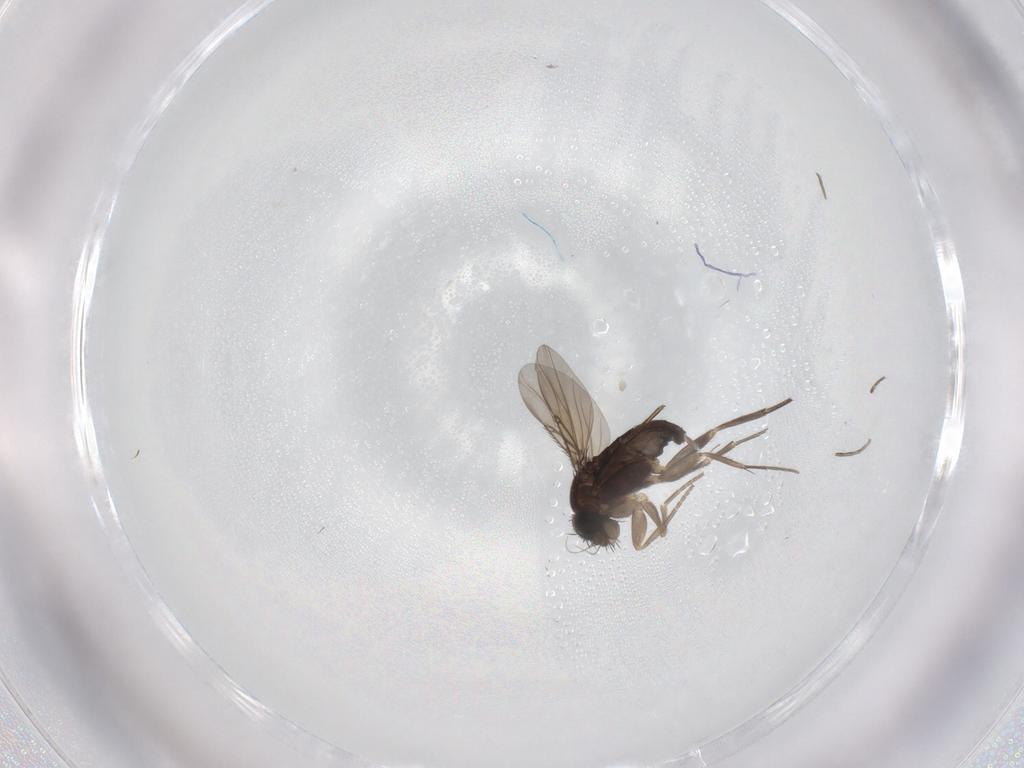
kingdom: Animalia
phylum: Arthropoda
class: Insecta
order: Diptera
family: Phoridae
